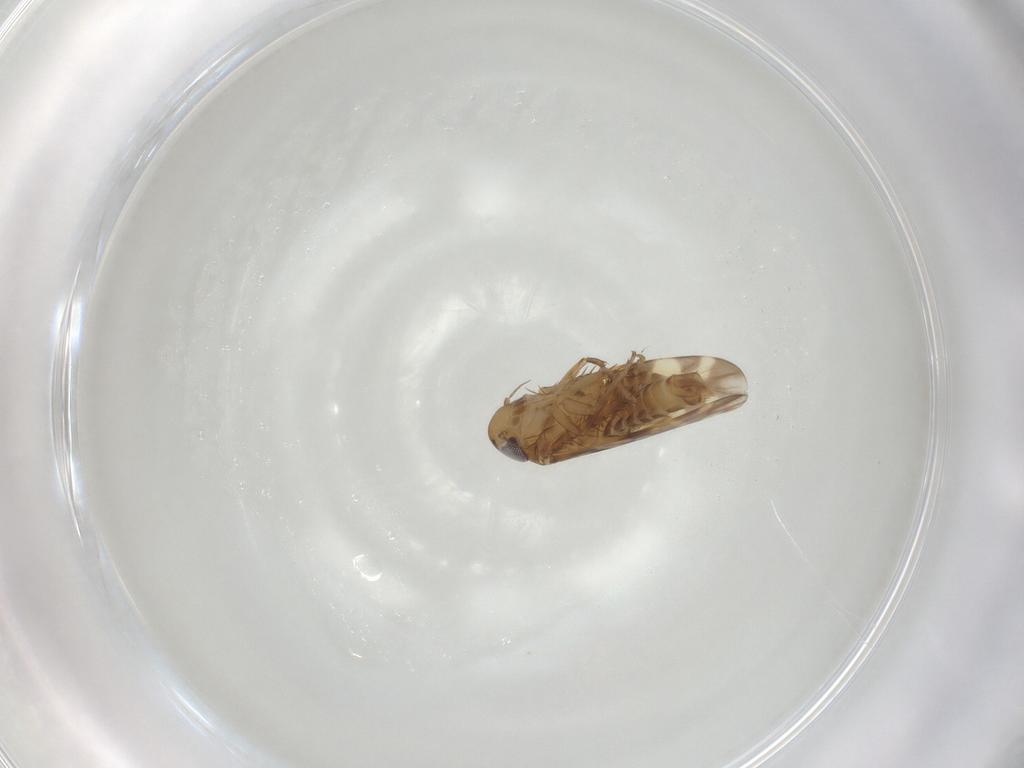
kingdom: Animalia
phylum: Arthropoda
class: Insecta
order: Hemiptera
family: Cicadellidae
